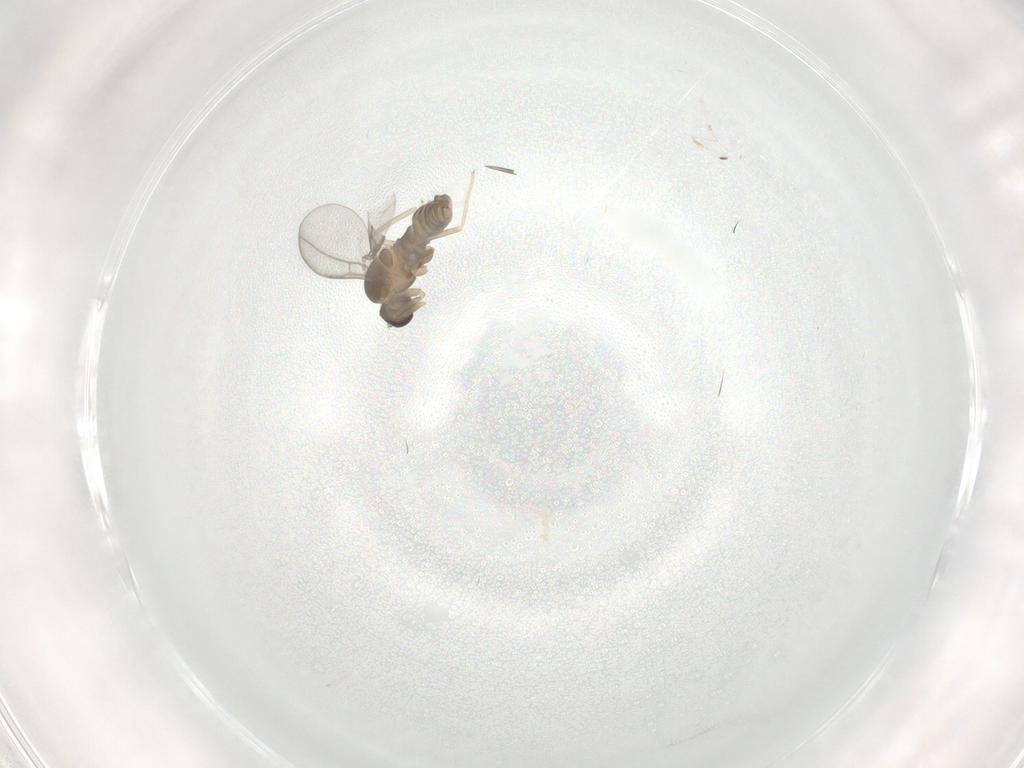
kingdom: Animalia
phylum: Arthropoda
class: Insecta
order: Diptera
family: Cecidomyiidae
